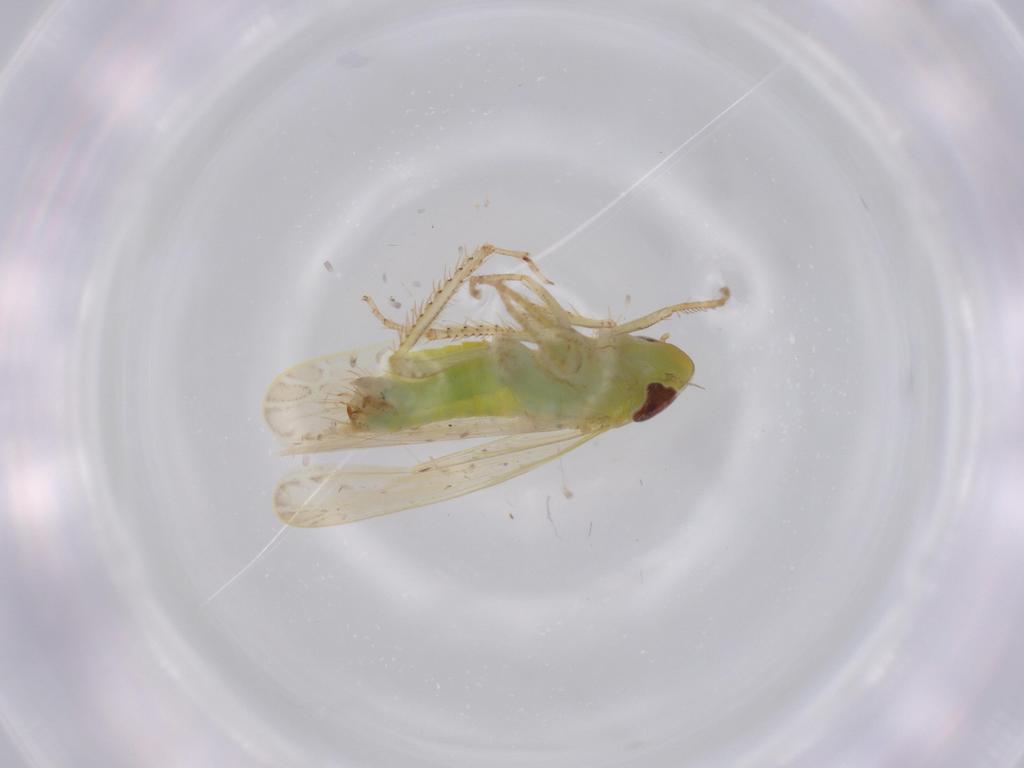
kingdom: Animalia
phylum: Arthropoda
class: Insecta
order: Hemiptera
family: Cicadellidae
